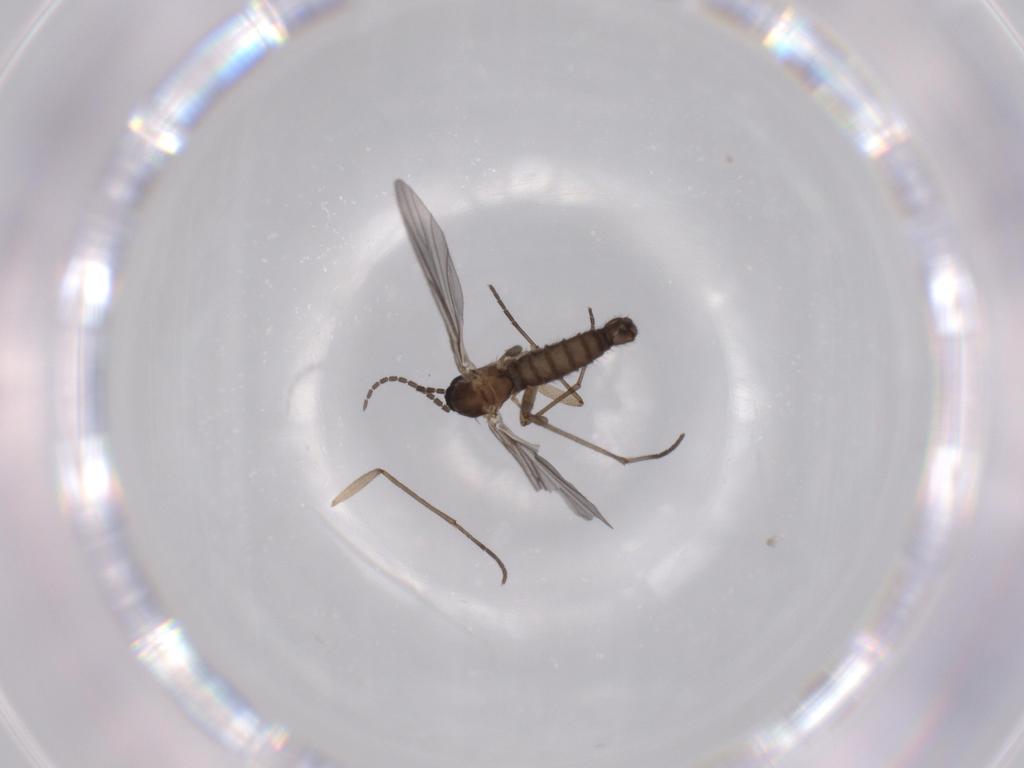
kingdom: Animalia
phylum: Arthropoda
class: Insecta
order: Diptera
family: Sciaridae
